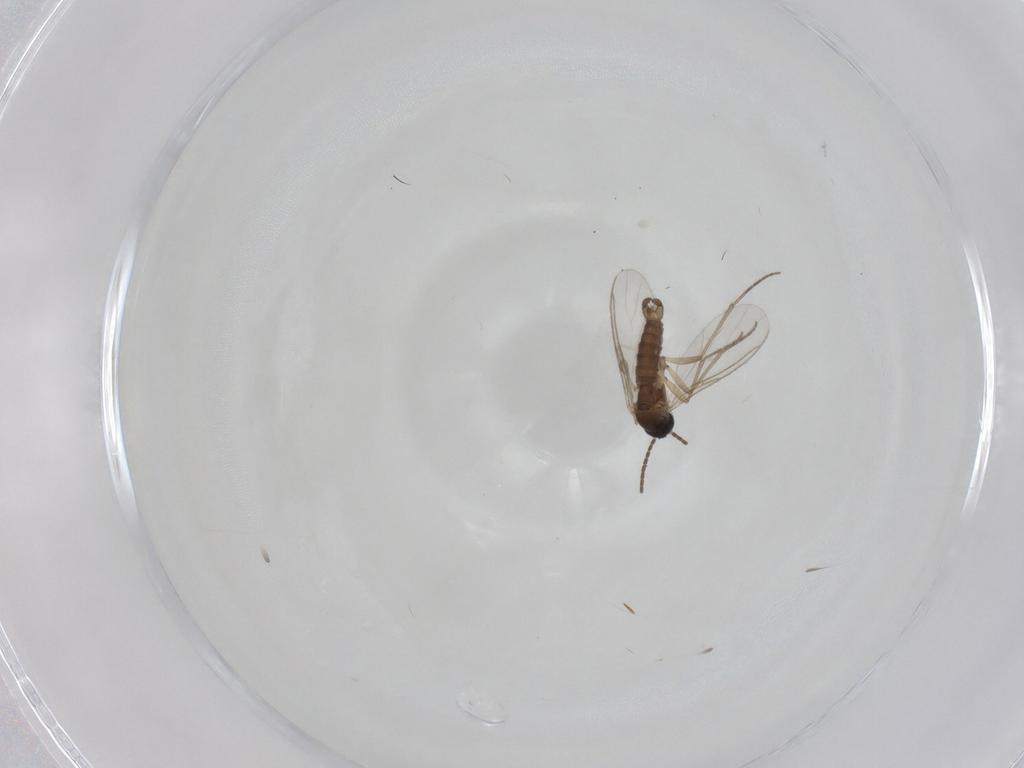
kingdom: Animalia
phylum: Arthropoda
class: Insecta
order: Diptera
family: Sciaridae
